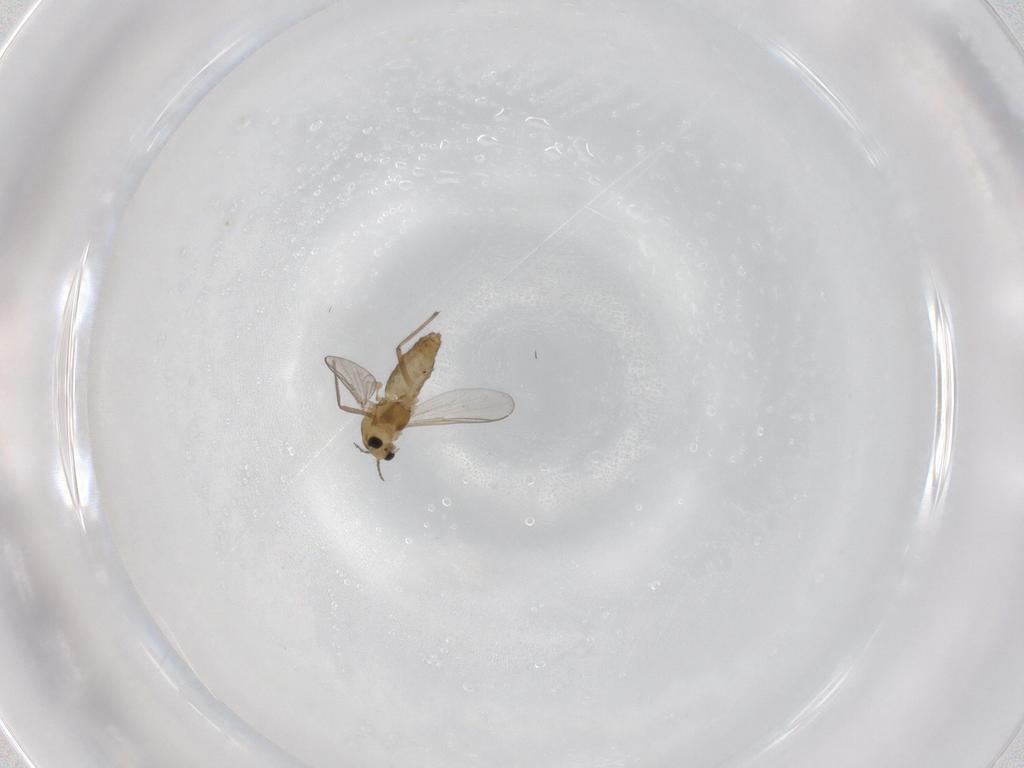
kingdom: Animalia
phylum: Arthropoda
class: Insecta
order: Diptera
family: Chironomidae
